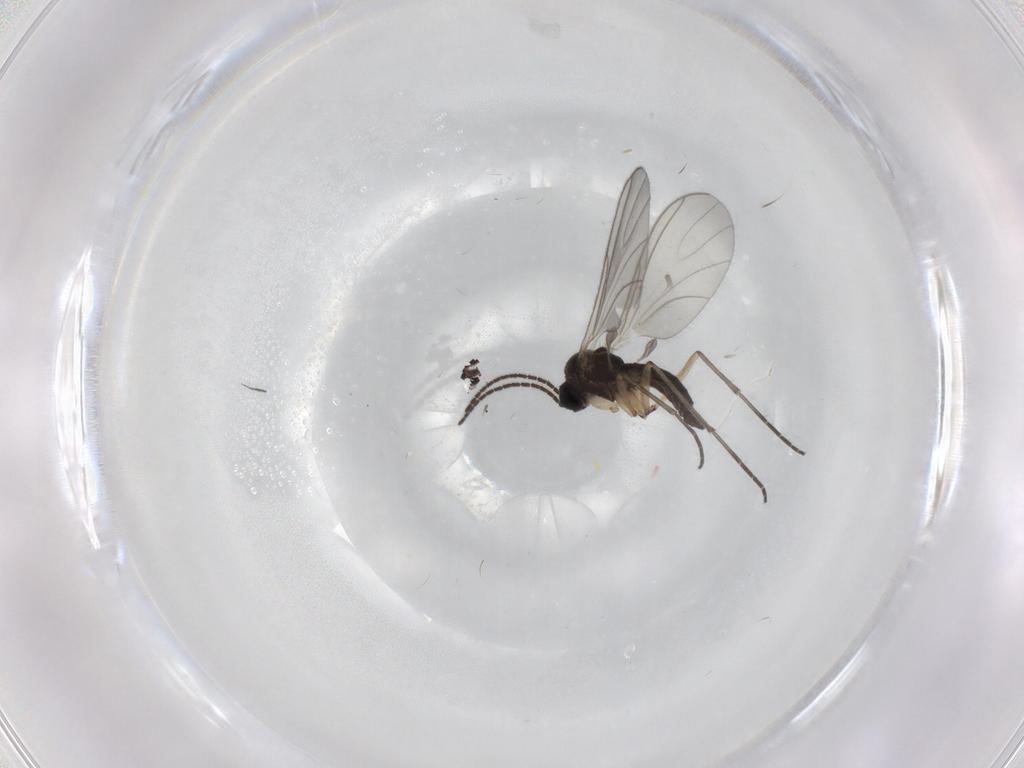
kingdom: Animalia
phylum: Arthropoda
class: Insecta
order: Diptera
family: Sciaridae
